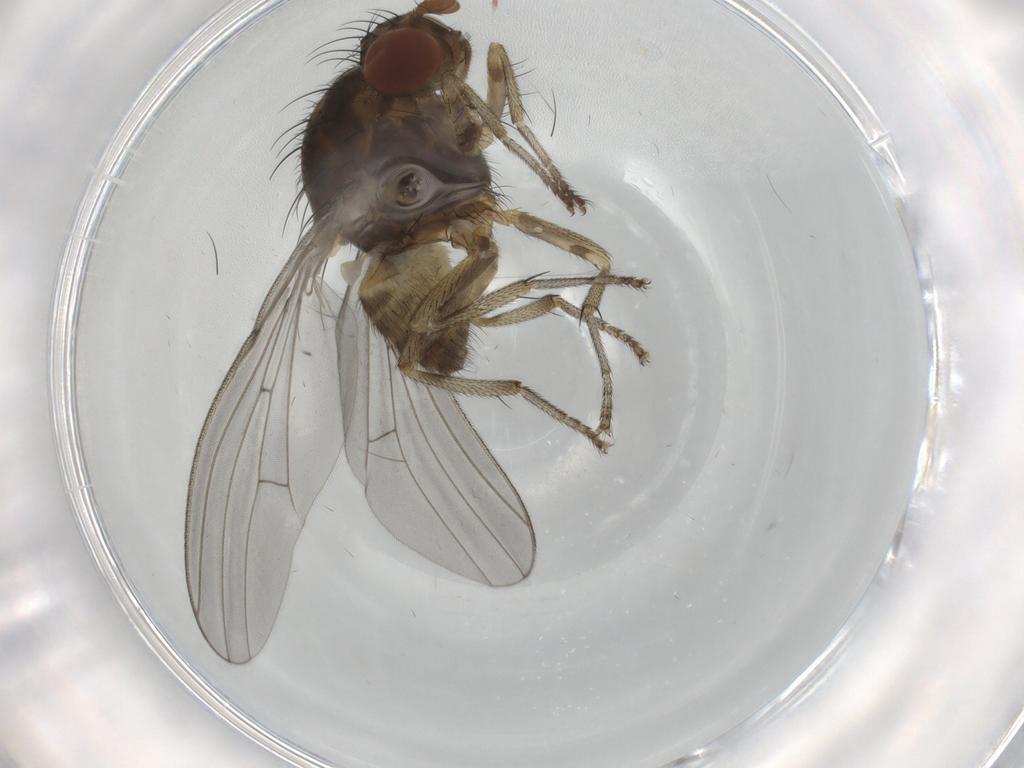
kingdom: Animalia
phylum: Arthropoda
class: Insecta
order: Diptera
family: Lauxaniidae
